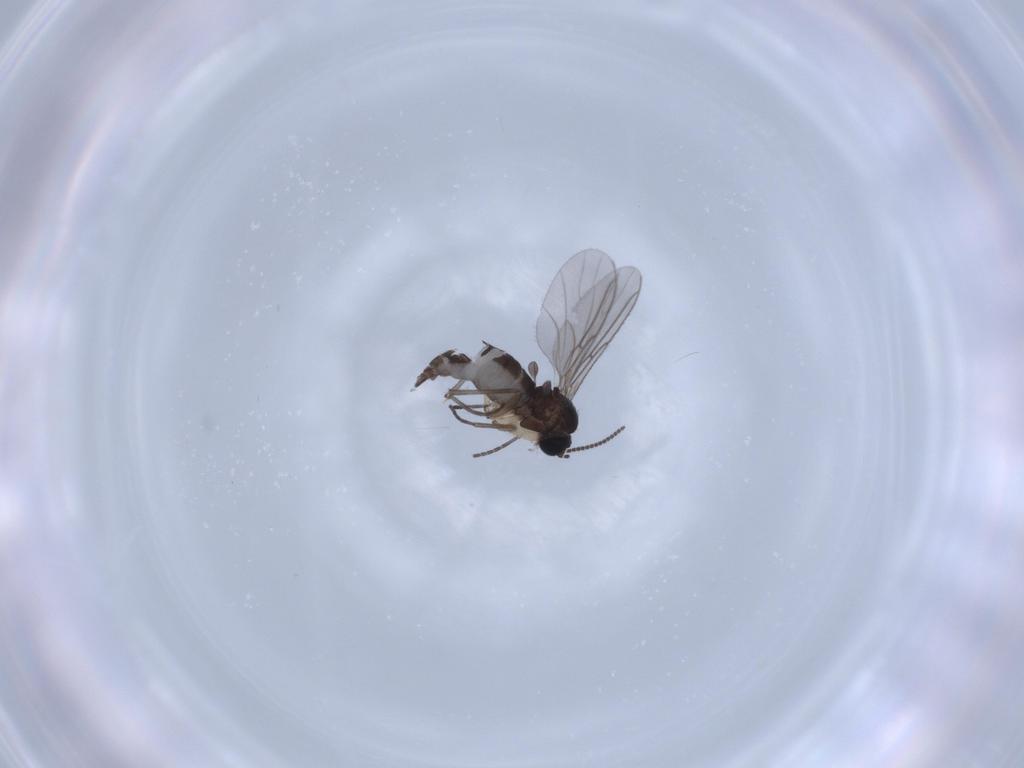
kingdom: Animalia
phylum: Arthropoda
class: Insecta
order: Diptera
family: Sciaridae
